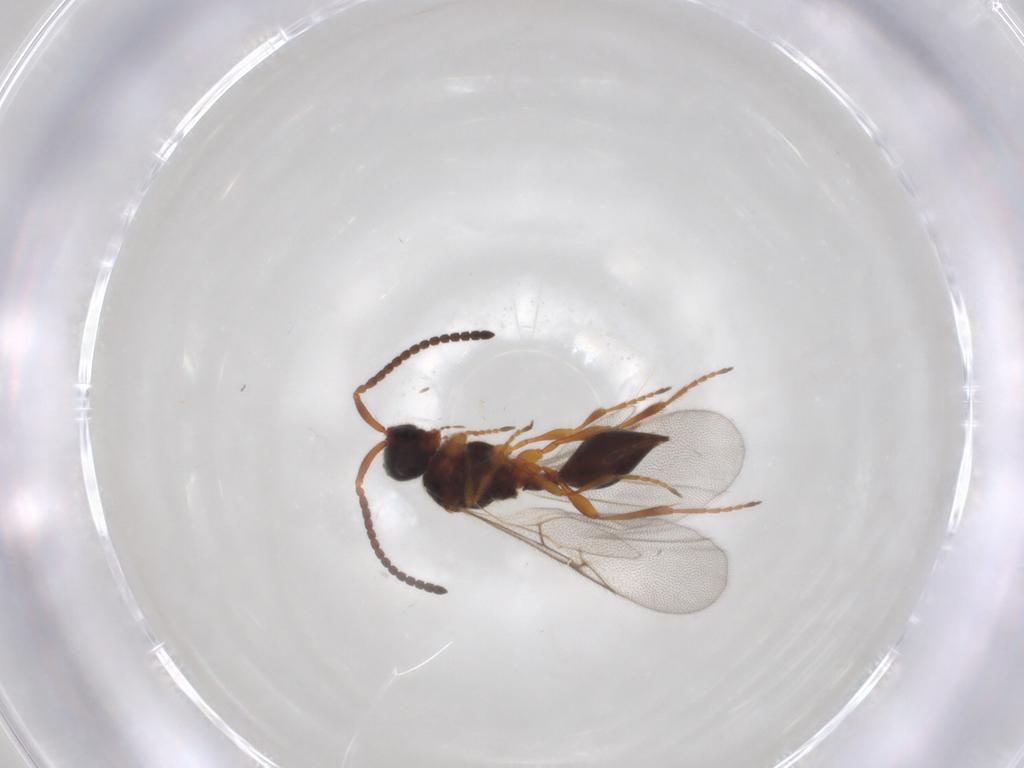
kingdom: Animalia
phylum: Arthropoda
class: Insecta
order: Hymenoptera
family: Diapriidae
